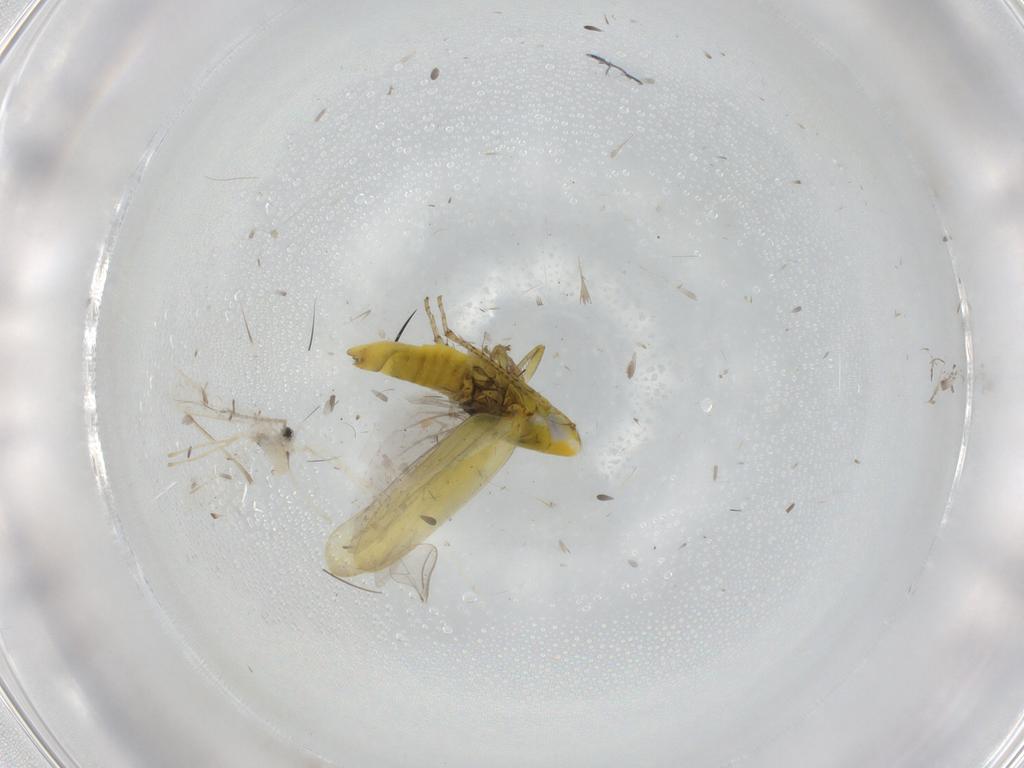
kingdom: Animalia
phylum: Arthropoda
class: Insecta
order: Hemiptera
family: Cicadellidae
